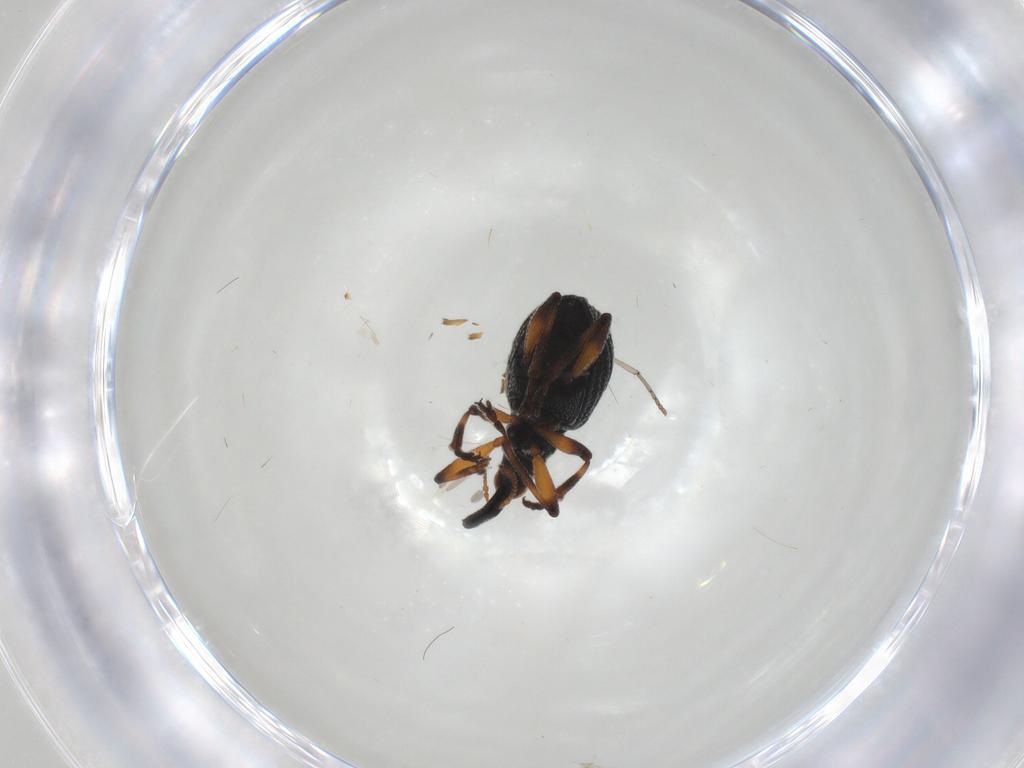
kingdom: Animalia
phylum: Arthropoda
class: Insecta
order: Coleoptera
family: Brentidae
